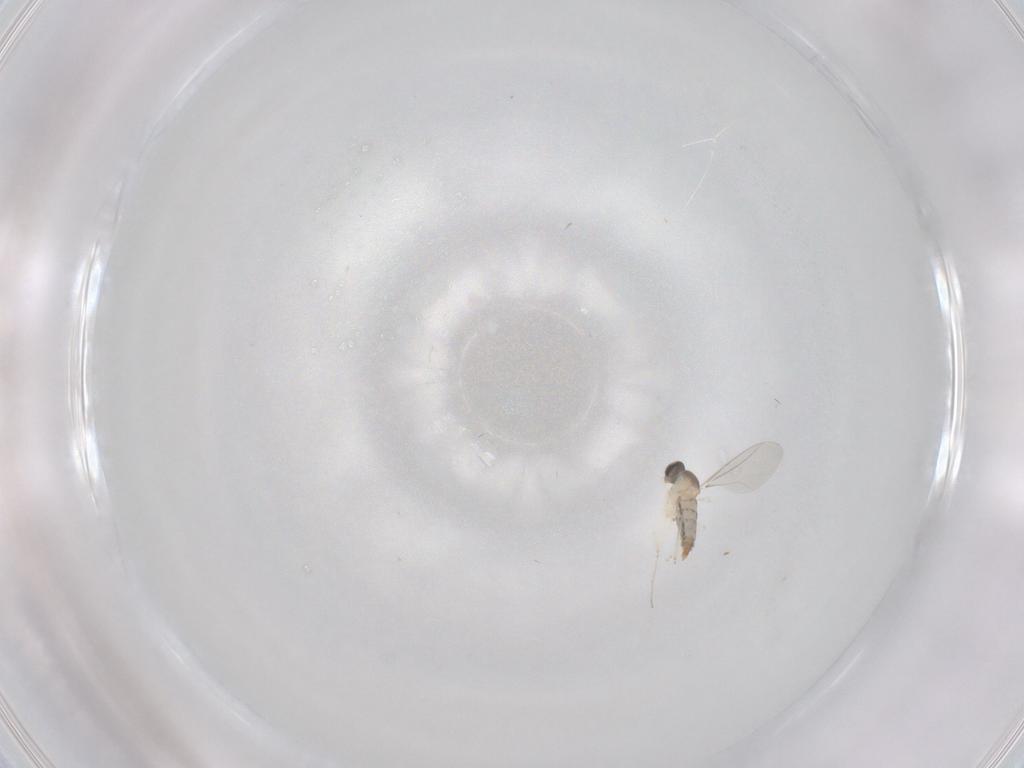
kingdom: Animalia
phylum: Arthropoda
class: Insecta
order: Diptera
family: Cecidomyiidae
